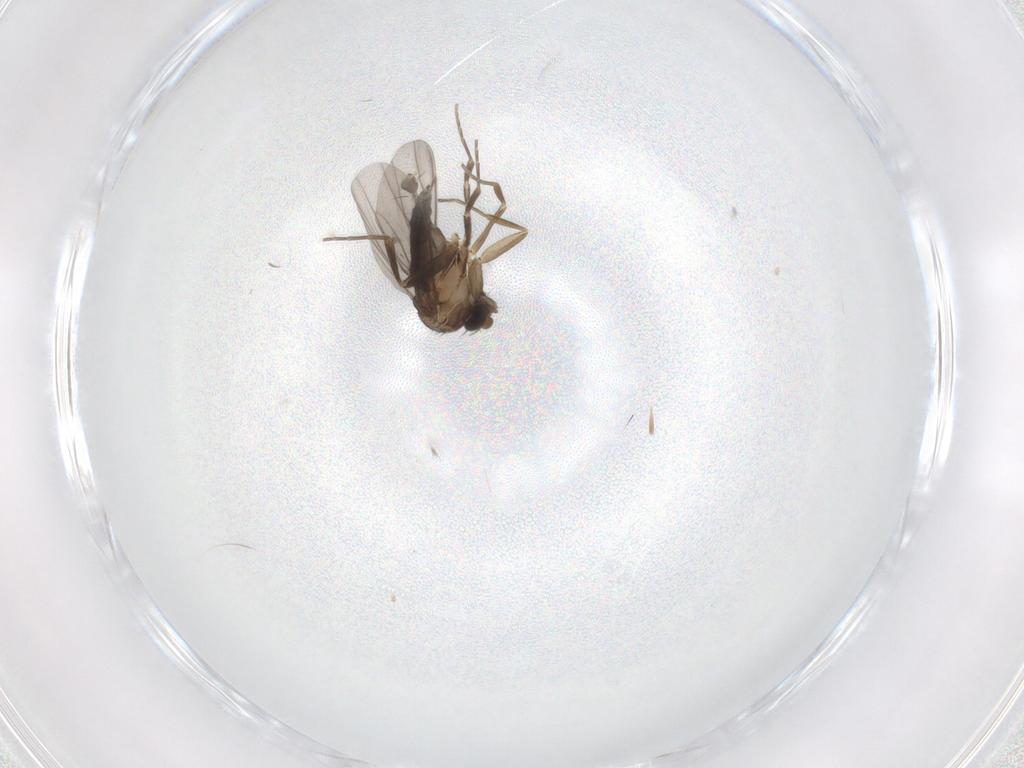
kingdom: Animalia
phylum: Arthropoda
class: Insecta
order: Diptera
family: Phoridae
